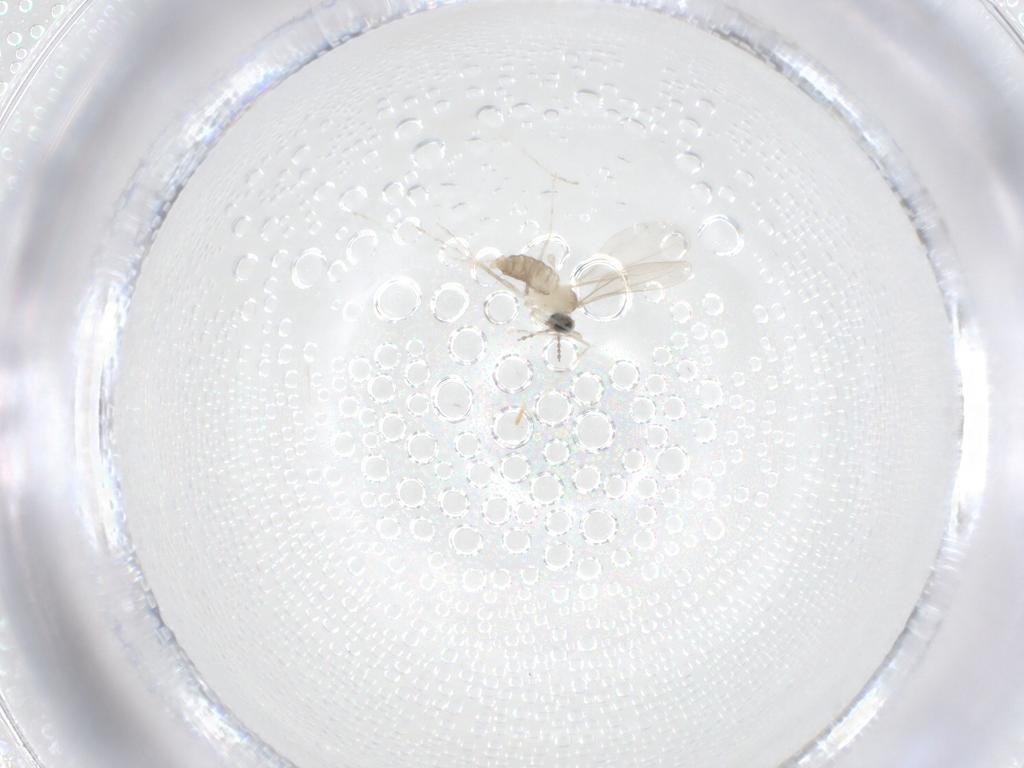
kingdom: Animalia
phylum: Arthropoda
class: Insecta
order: Diptera
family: Cecidomyiidae
